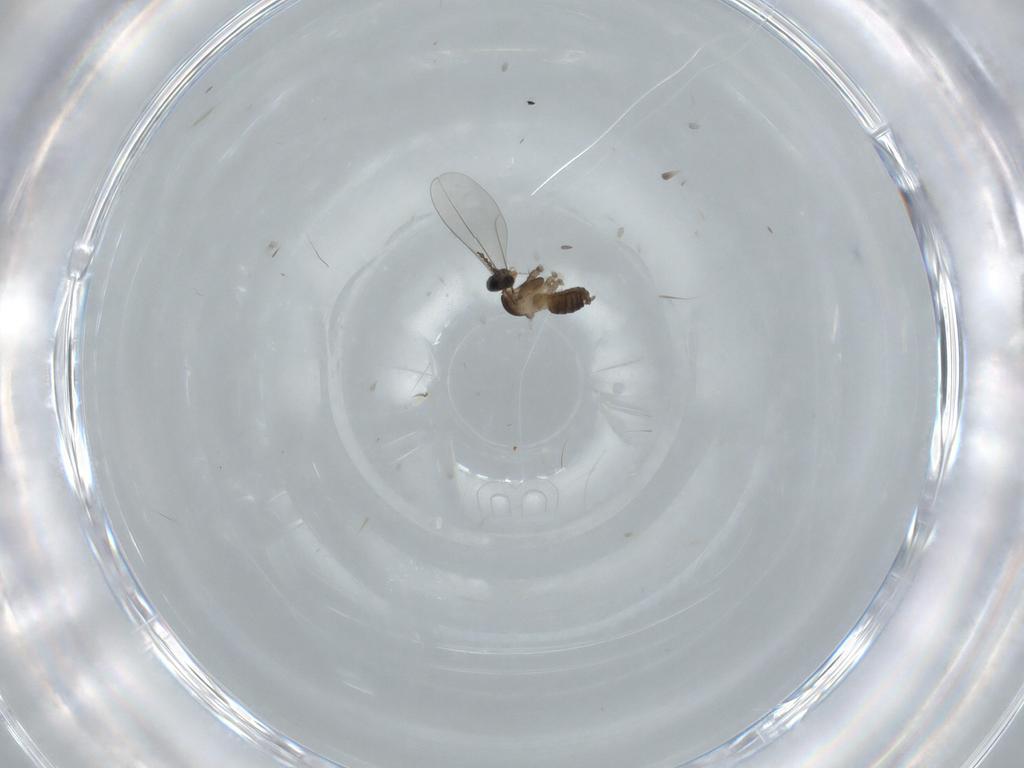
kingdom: Animalia
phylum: Arthropoda
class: Insecta
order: Diptera
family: Drosophilidae
